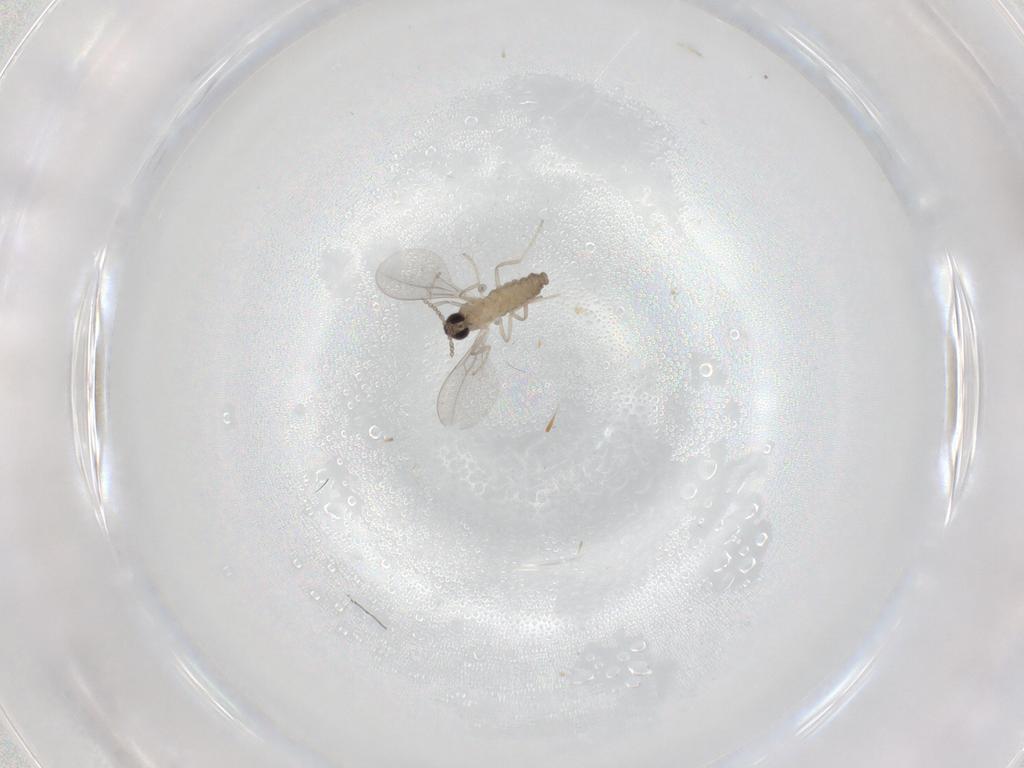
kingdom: Animalia
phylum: Arthropoda
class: Insecta
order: Diptera
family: Cecidomyiidae
